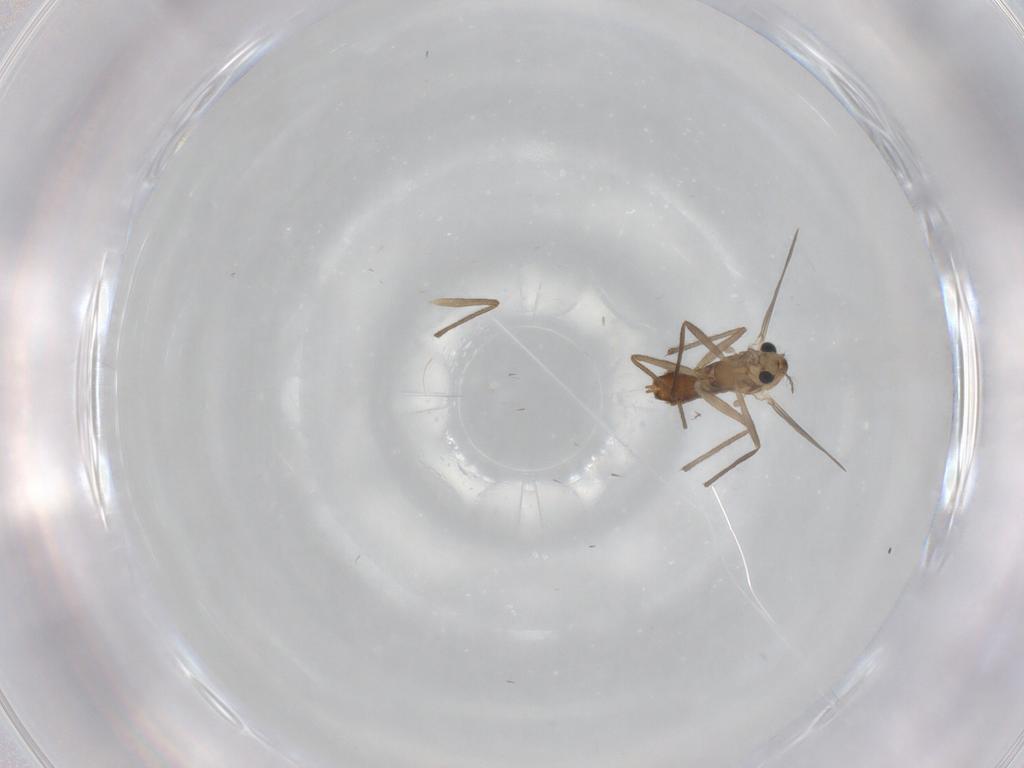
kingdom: Animalia
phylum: Arthropoda
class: Insecta
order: Diptera
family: Chironomidae
